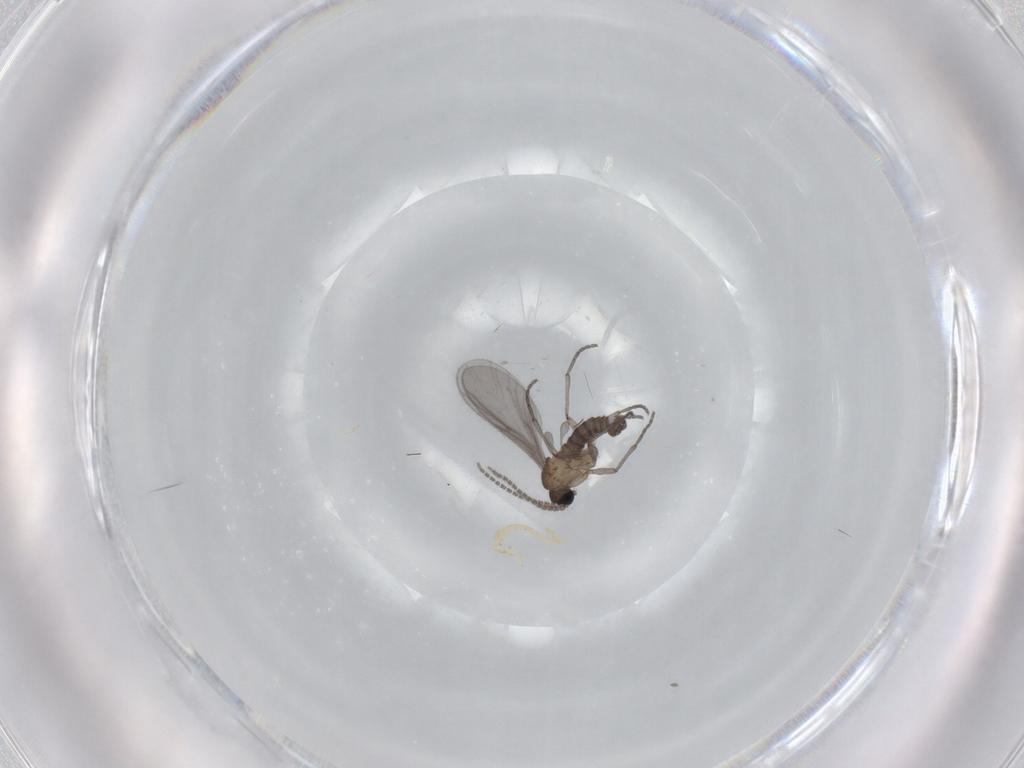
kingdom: Animalia
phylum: Arthropoda
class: Insecta
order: Diptera
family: Sciaridae
